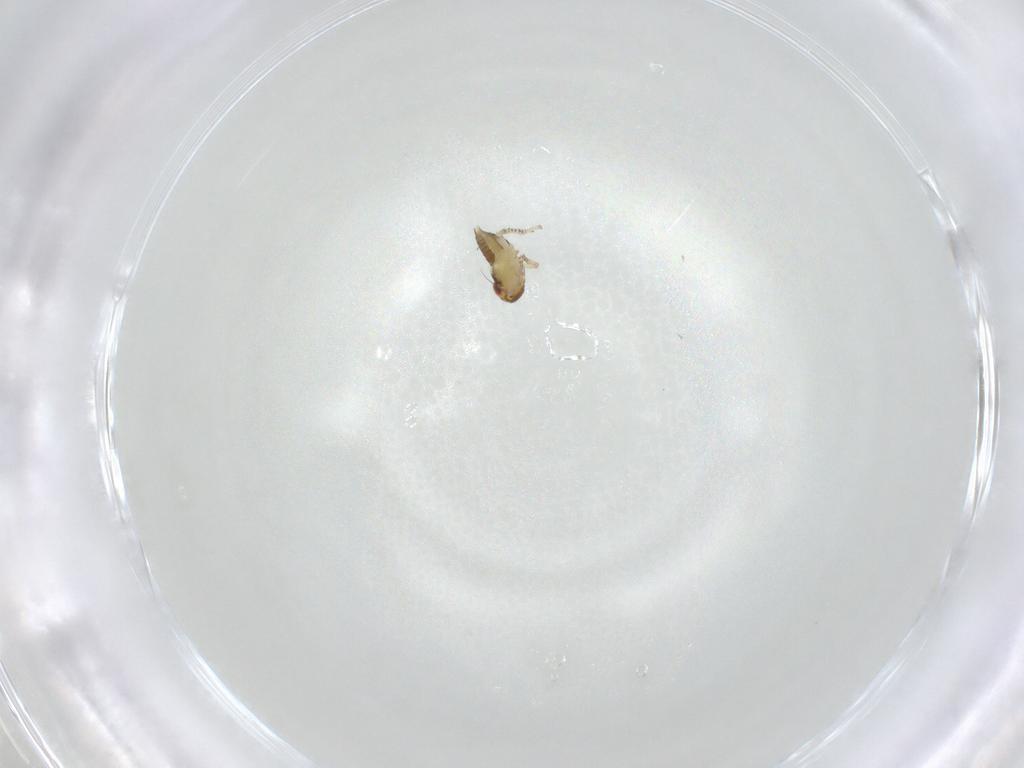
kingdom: Animalia
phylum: Arthropoda
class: Insecta
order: Hemiptera
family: Cicadellidae
